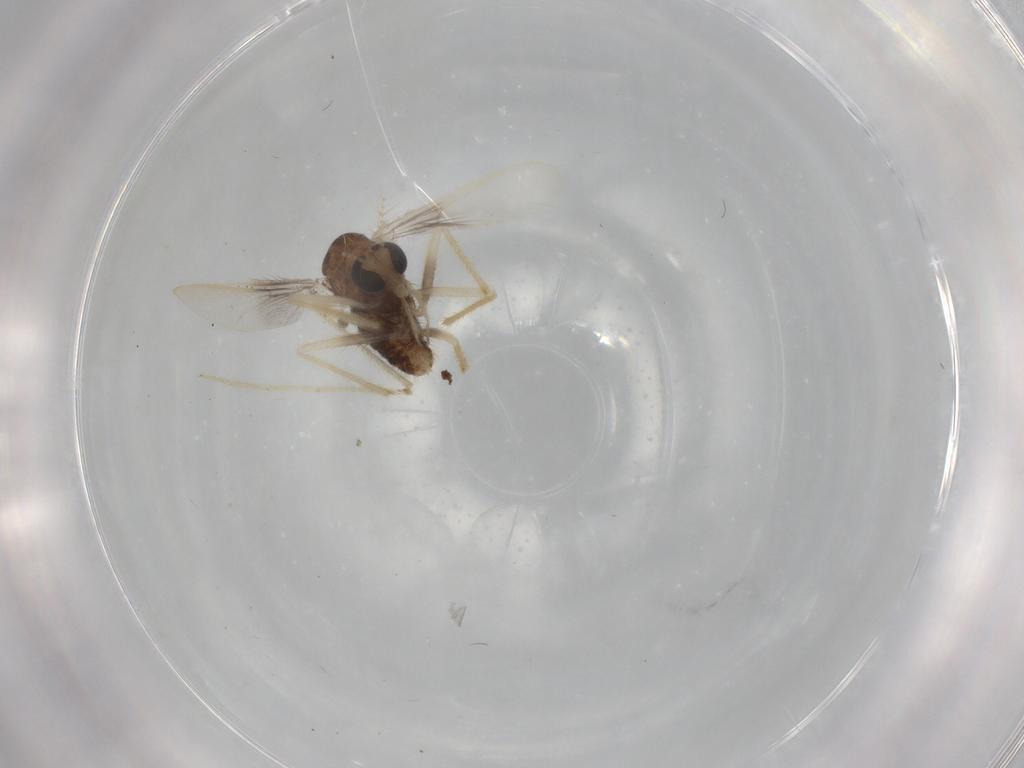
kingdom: Animalia
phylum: Arthropoda
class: Insecta
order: Diptera
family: Chironomidae
